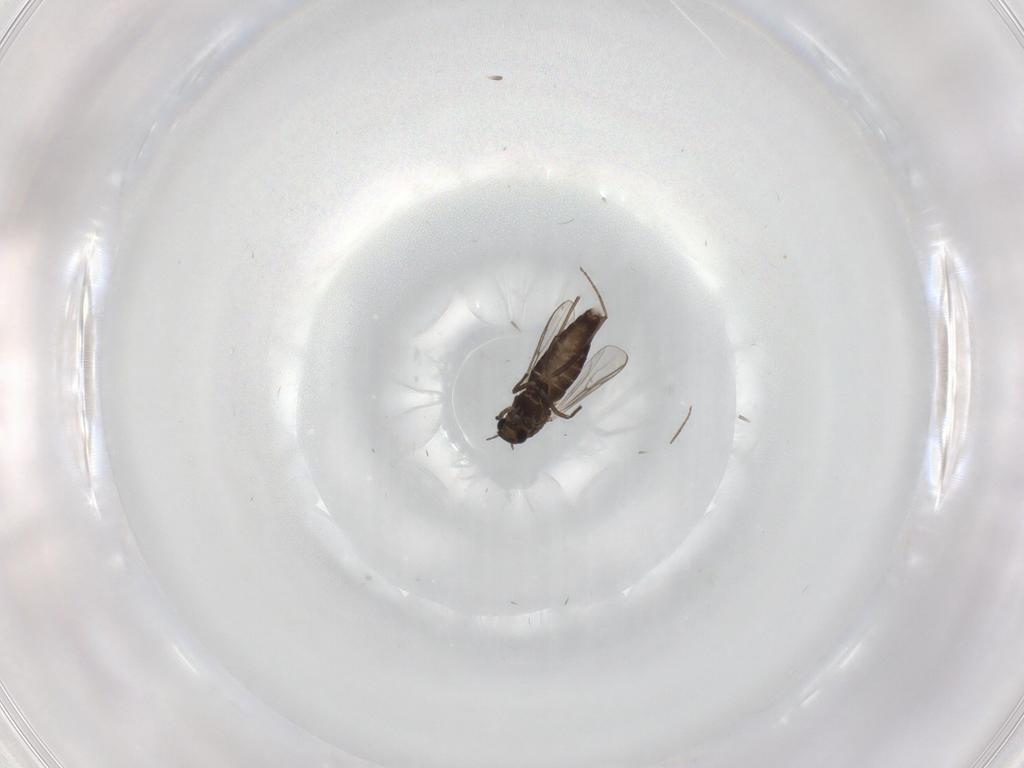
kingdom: Animalia
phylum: Arthropoda
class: Insecta
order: Diptera
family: Chironomidae
